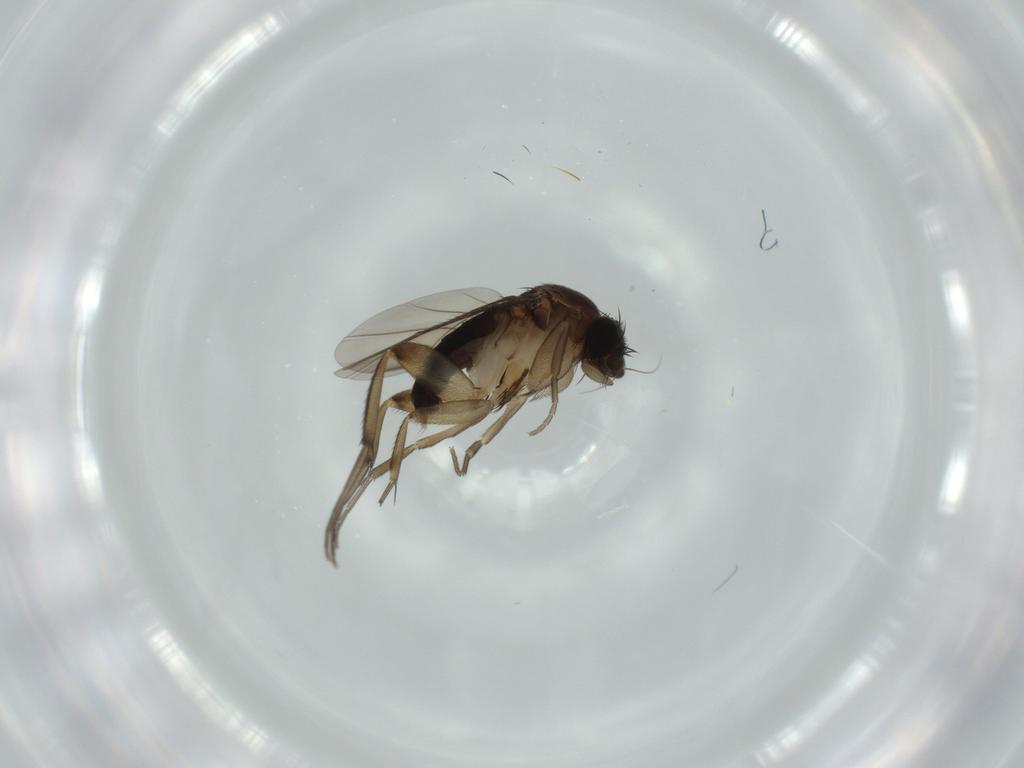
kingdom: Animalia
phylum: Arthropoda
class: Insecta
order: Diptera
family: Phoridae
